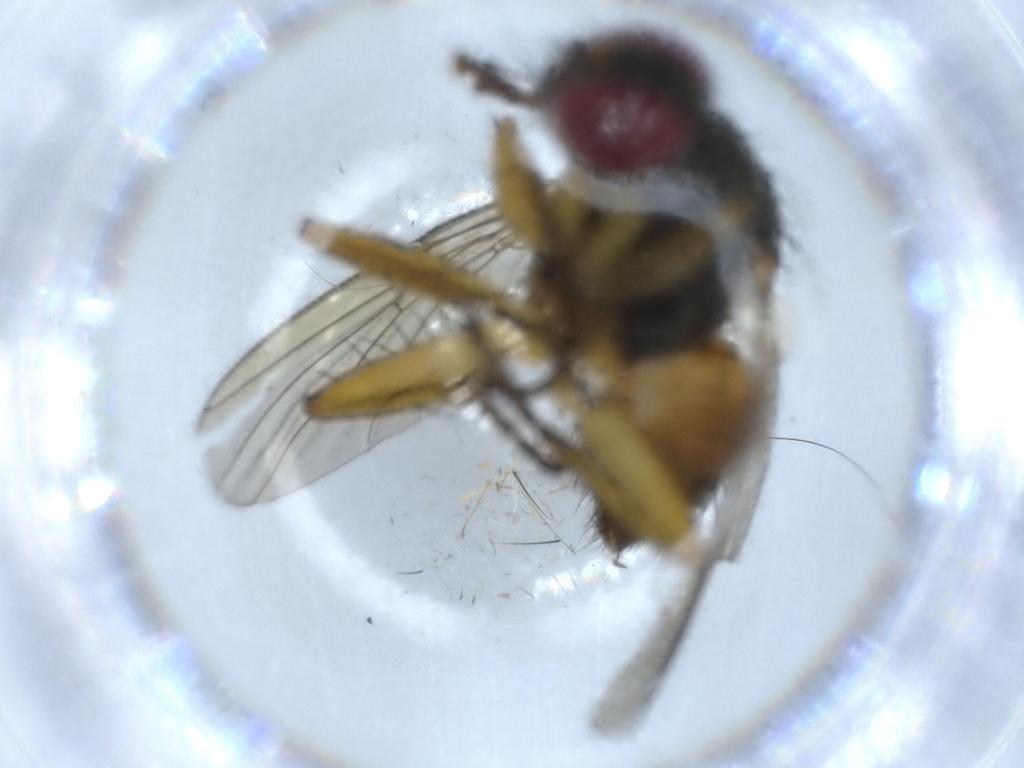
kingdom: Animalia
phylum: Arthropoda
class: Insecta
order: Diptera
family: Muscidae
